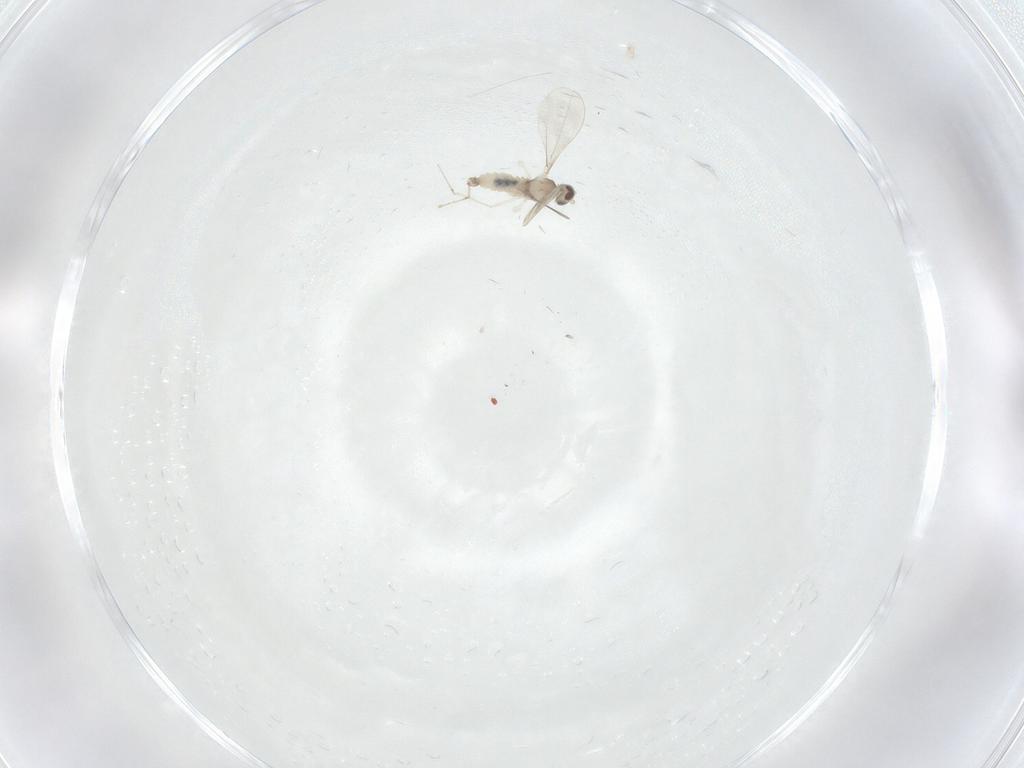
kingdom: Animalia
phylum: Arthropoda
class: Insecta
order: Diptera
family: Cecidomyiidae
